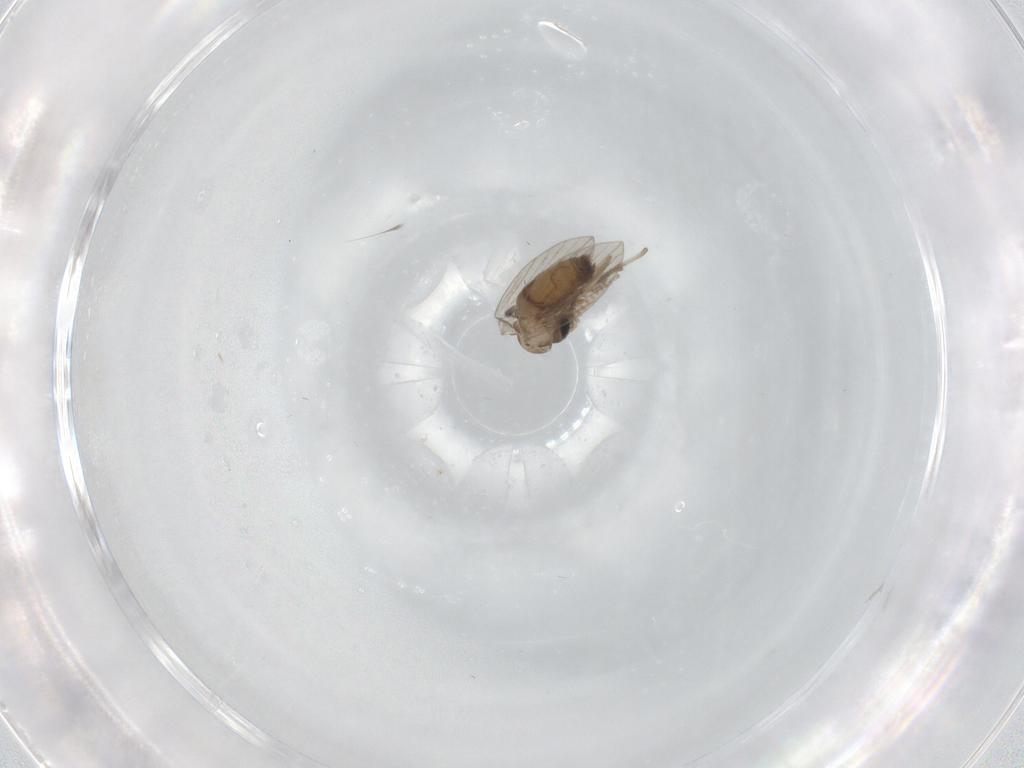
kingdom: Animalia
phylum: Arthropoda
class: Insecta
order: Diptera
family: Psychodidae
